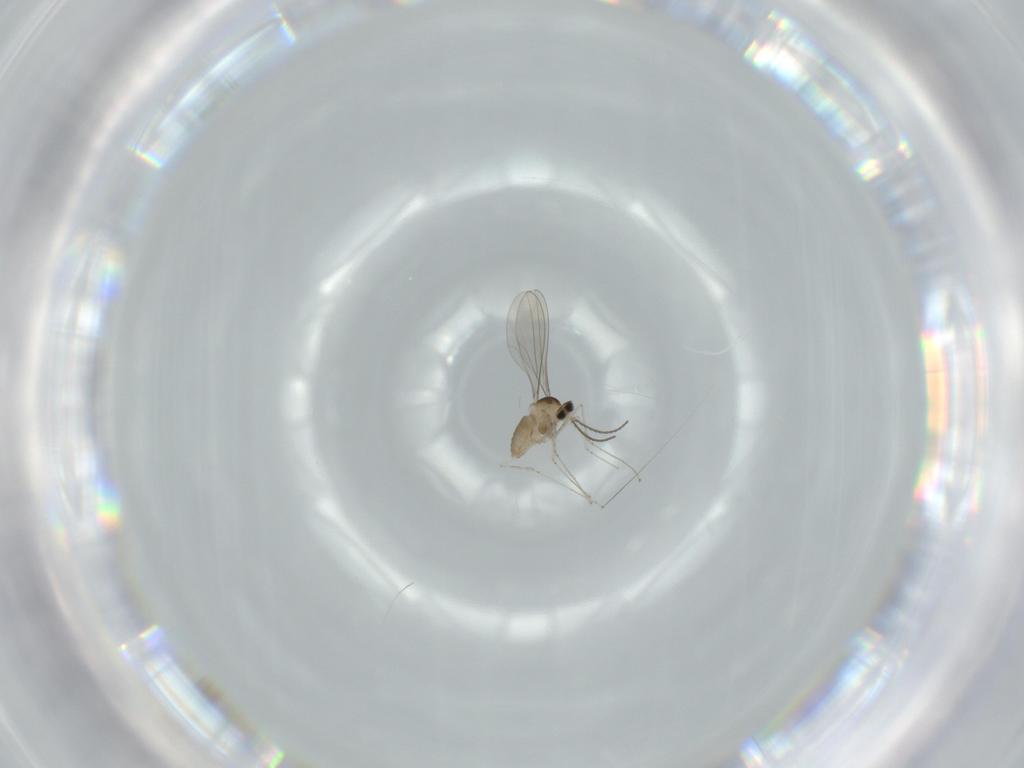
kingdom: Animalia
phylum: Arthropoda
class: Insecta
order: Diptera
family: Cecidomyiidae
